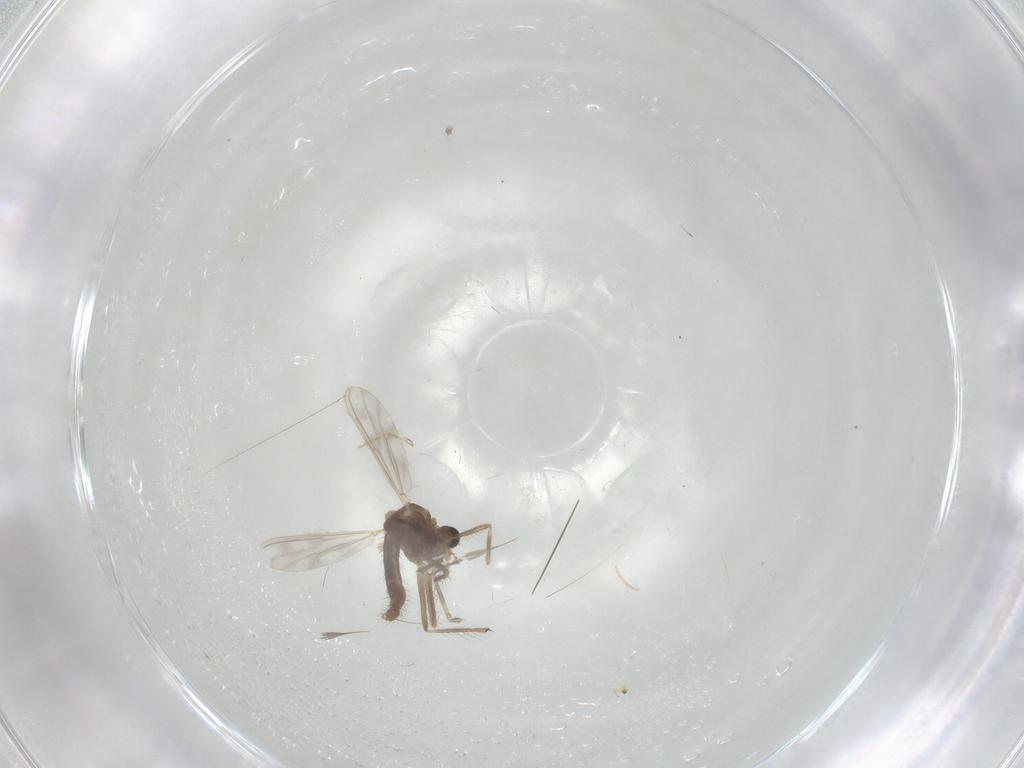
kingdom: Animalia
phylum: Arthropoda
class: Insecta
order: Diptera
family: Chironomidae
